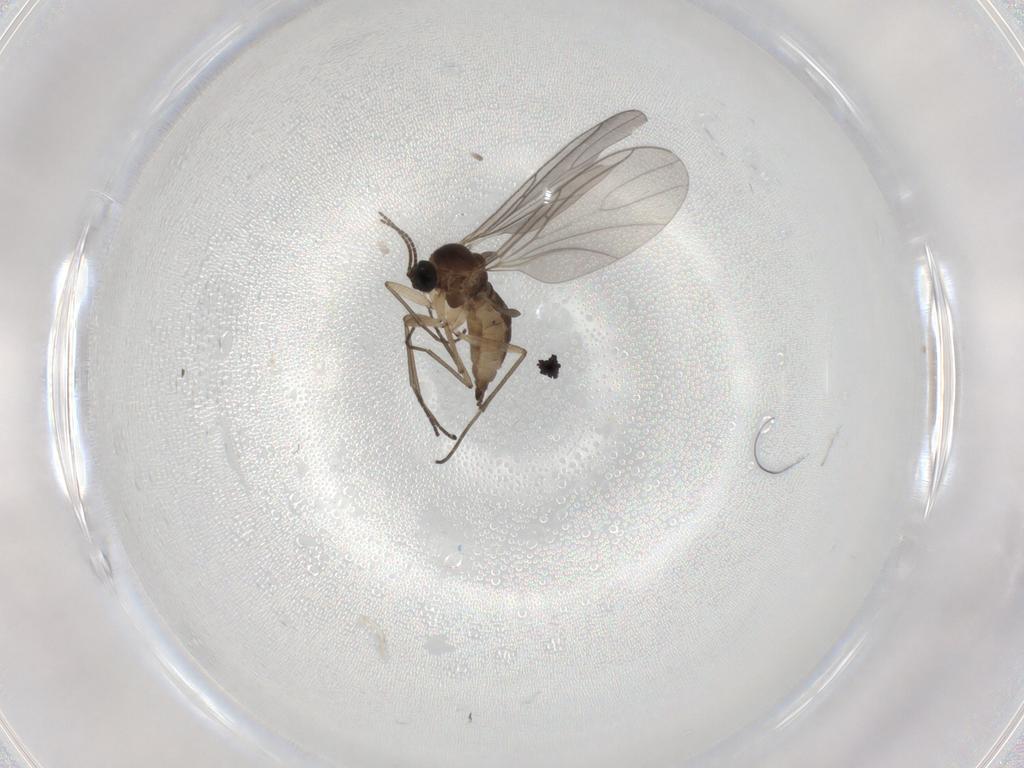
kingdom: Animalia
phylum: Arthropoda
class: Insecta
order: Diptera
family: Sciaridae
